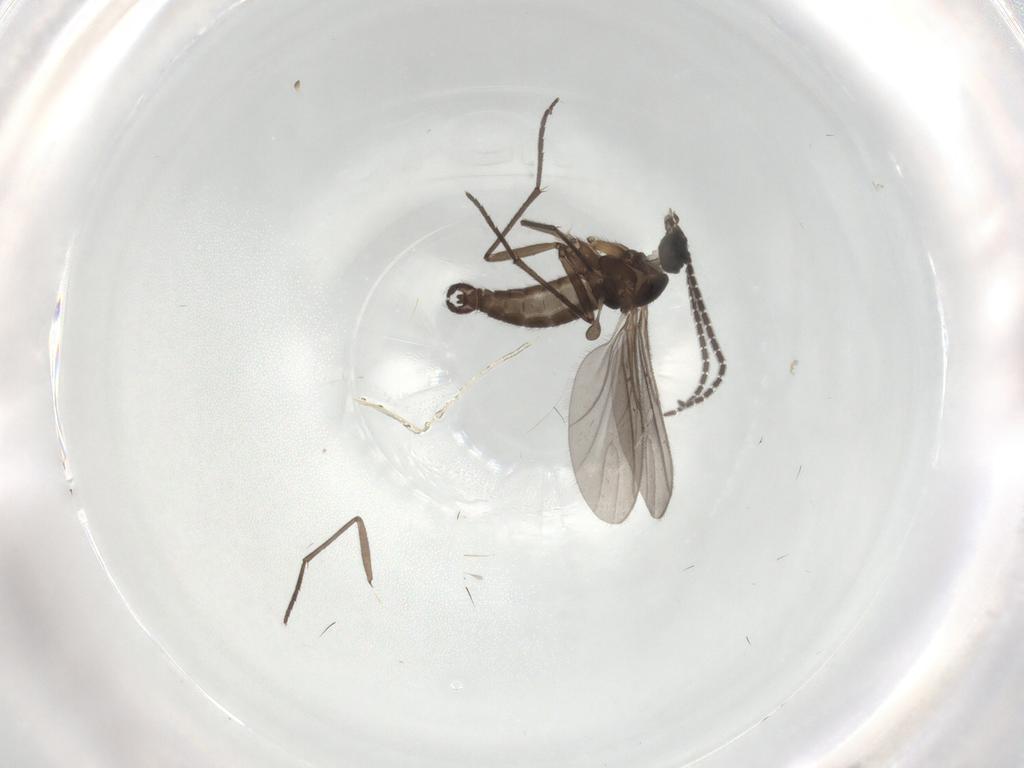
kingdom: Animalia
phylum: Arthropoda
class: Insecta
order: Diptera
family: Sciaridae
